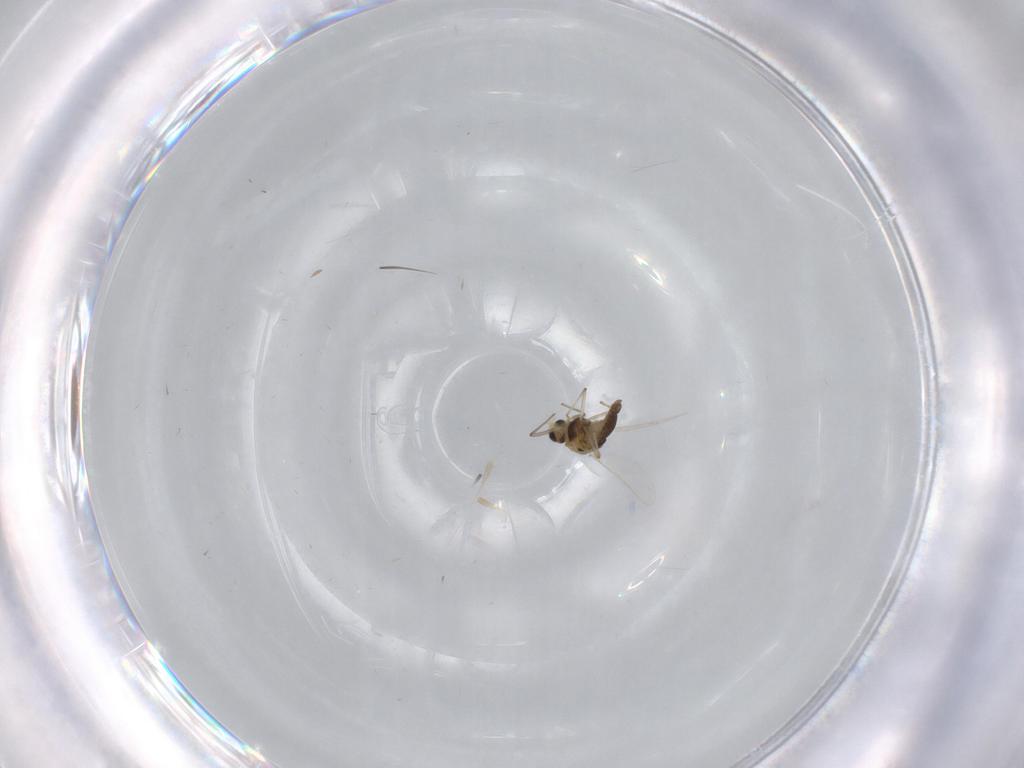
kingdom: Animalia
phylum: Arthropoda
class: Insecta
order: Diptera
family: Chironomidae
